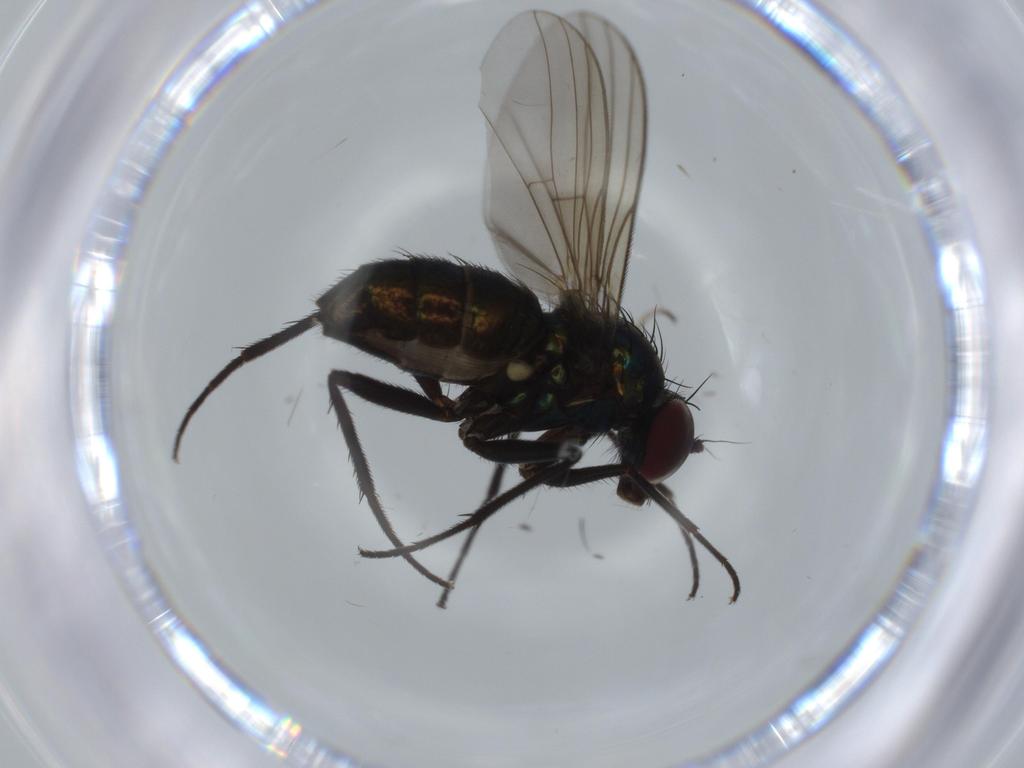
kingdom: Animalia
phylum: Arthropoda
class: Insecta
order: Diptera
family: Dolichopodidae
